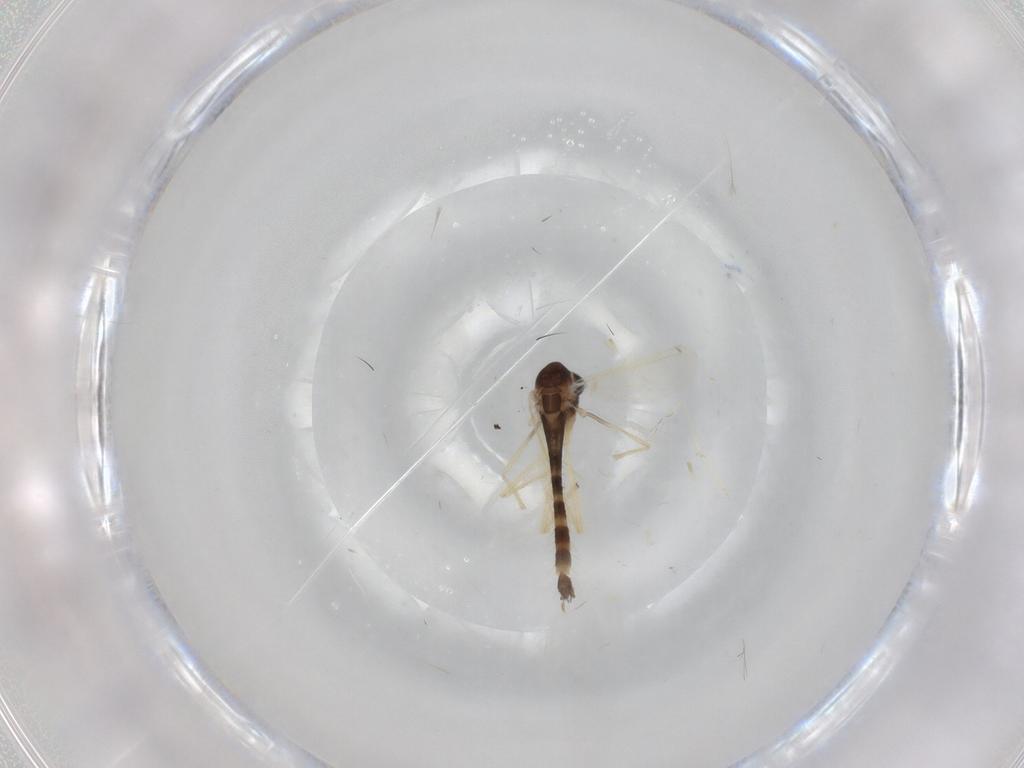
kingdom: Animalia
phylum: Arthropoda
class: Insecta
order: Diptera
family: Chironomidae
